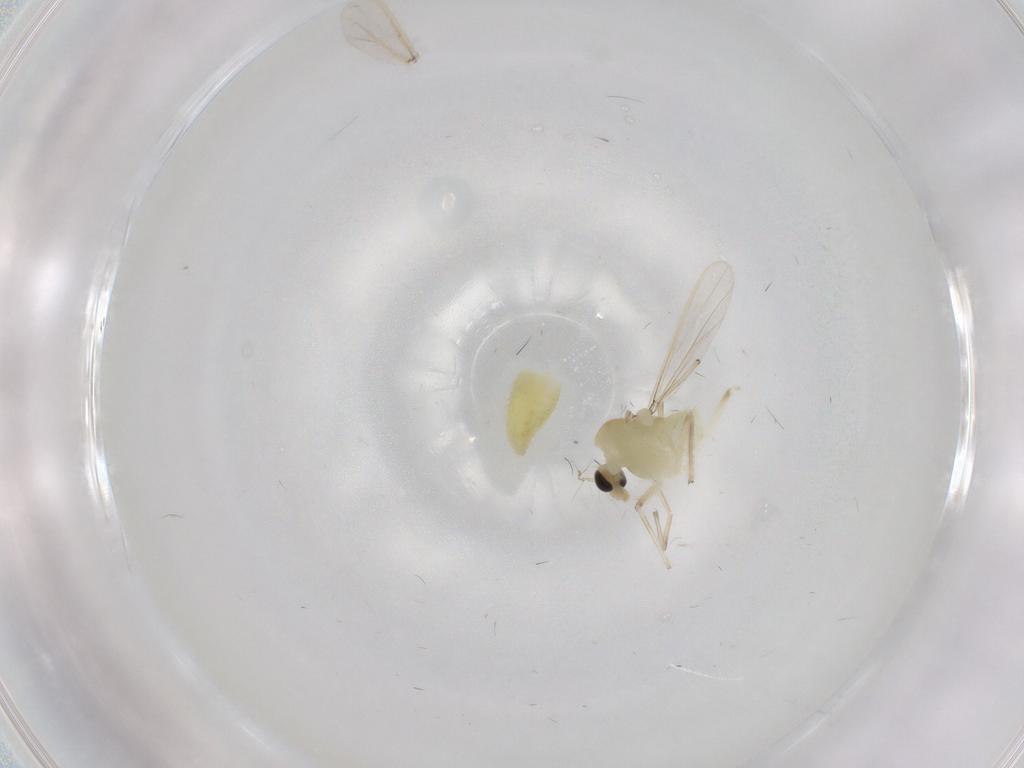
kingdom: Animalia
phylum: Arthropoda
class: Insecta
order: Diptera
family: Chironomidae
